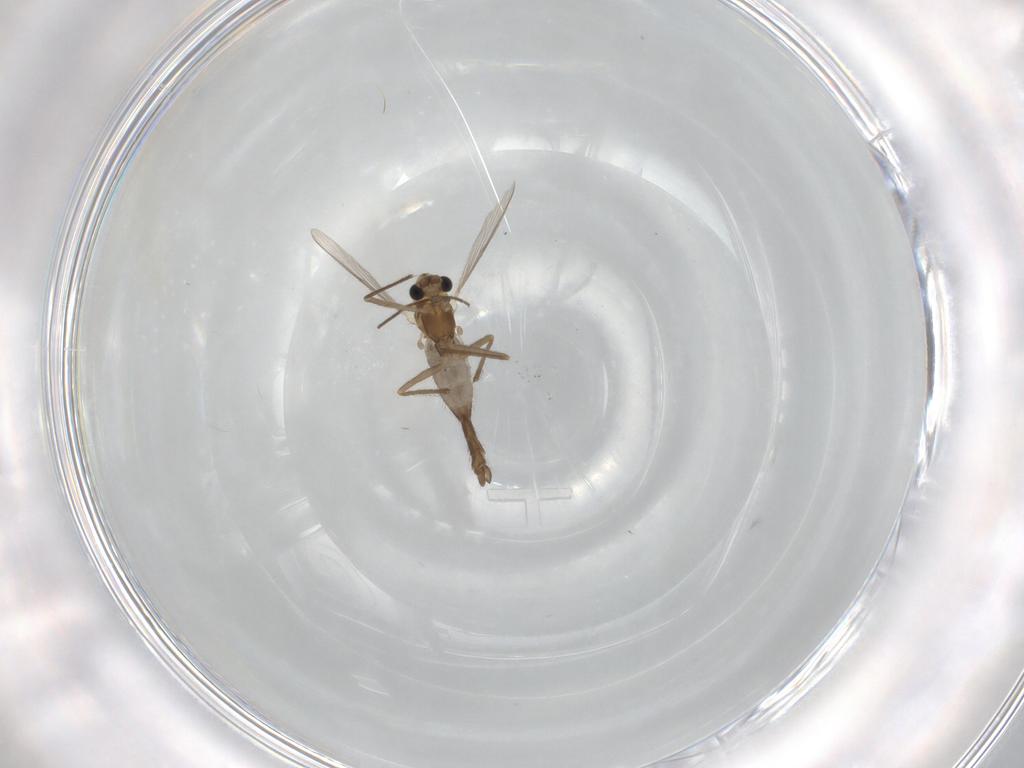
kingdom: Animalia
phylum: Arthropoda
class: Insecta
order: Diptera
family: Chironomidae
